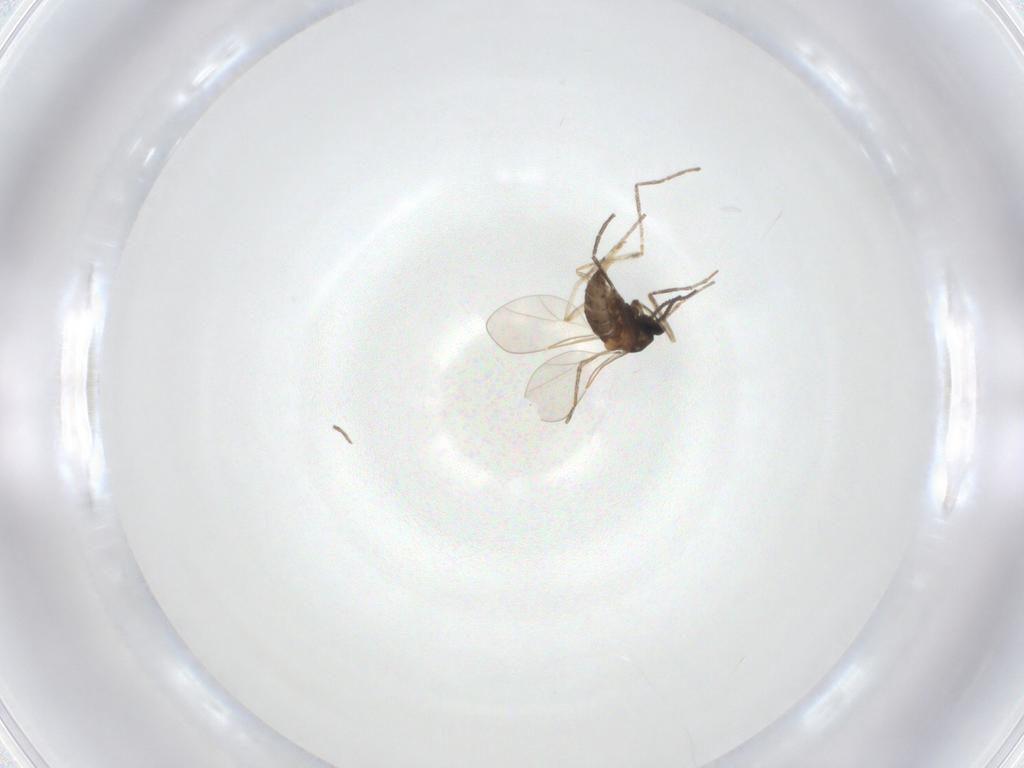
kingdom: Animalia
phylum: Arthropoda
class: Insecta
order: Diptera
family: Cecidomyiidae
